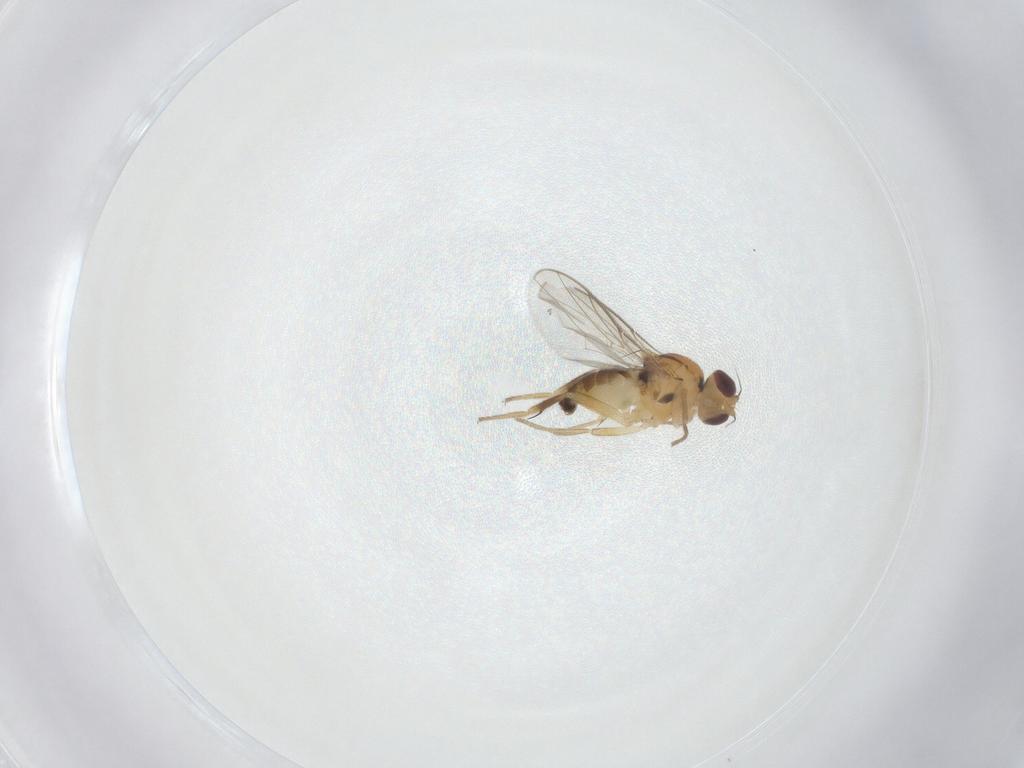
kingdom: Animalia
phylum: Arthropoda
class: Insecta
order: Diptera
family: Chloropidae
